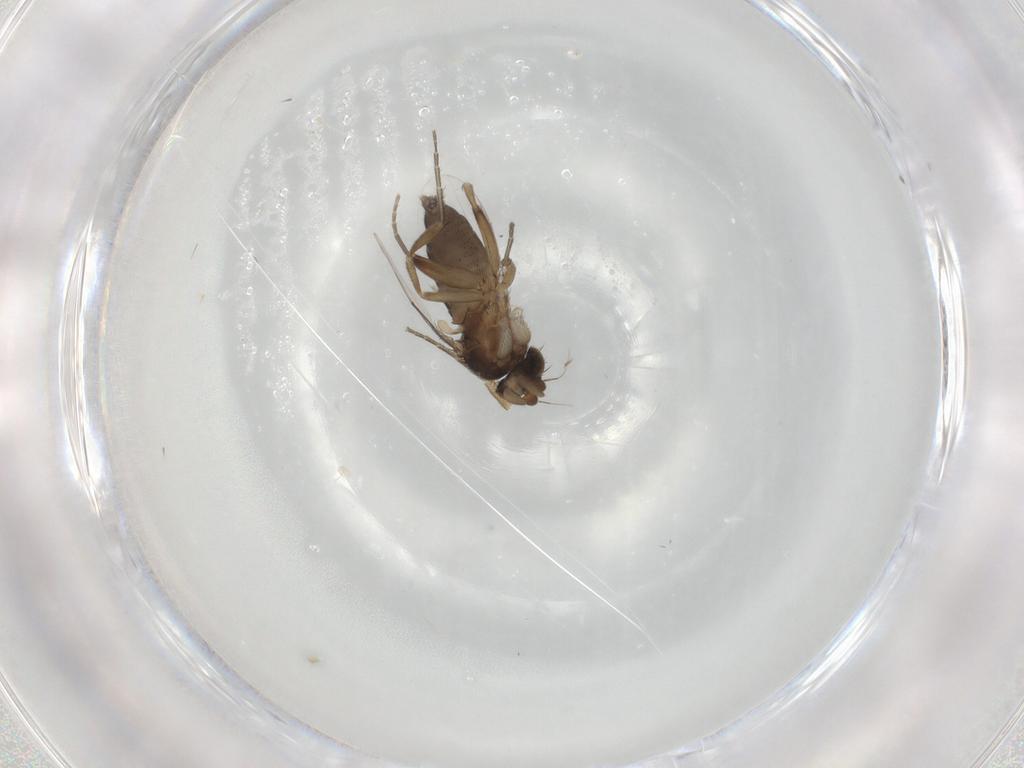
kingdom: Animalia
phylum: Arthropoda
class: Insecta
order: Diptera
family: Phoridae
